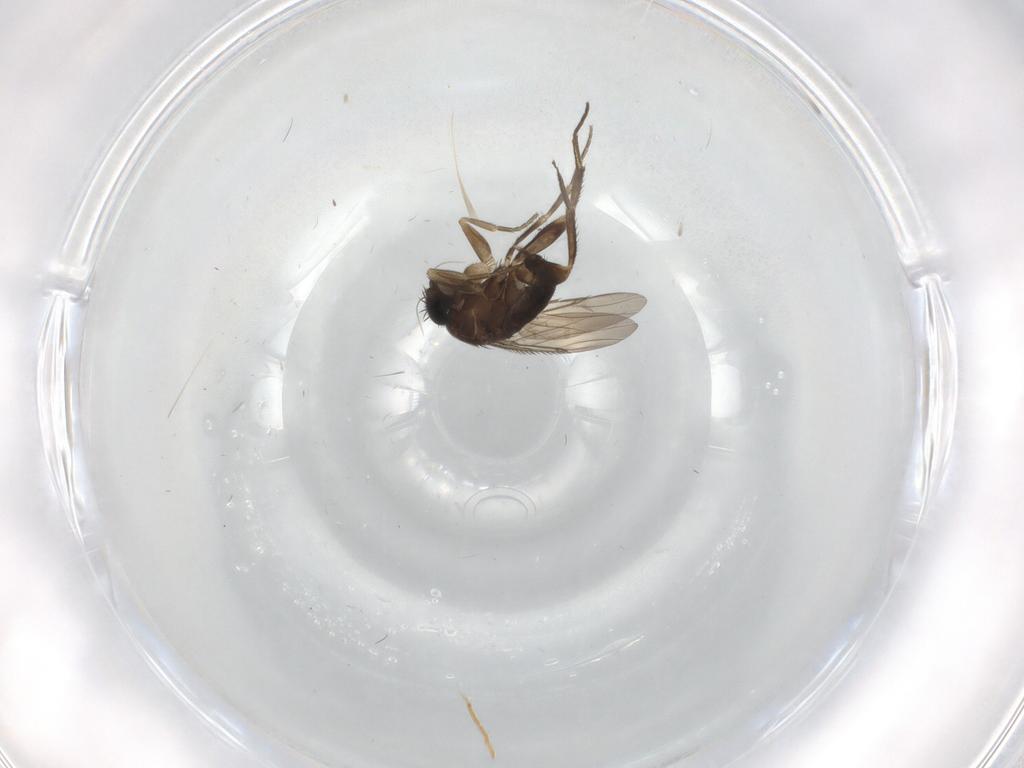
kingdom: Animalia
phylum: Arthropoda
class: Insecta
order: Diptera
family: Phoridae
